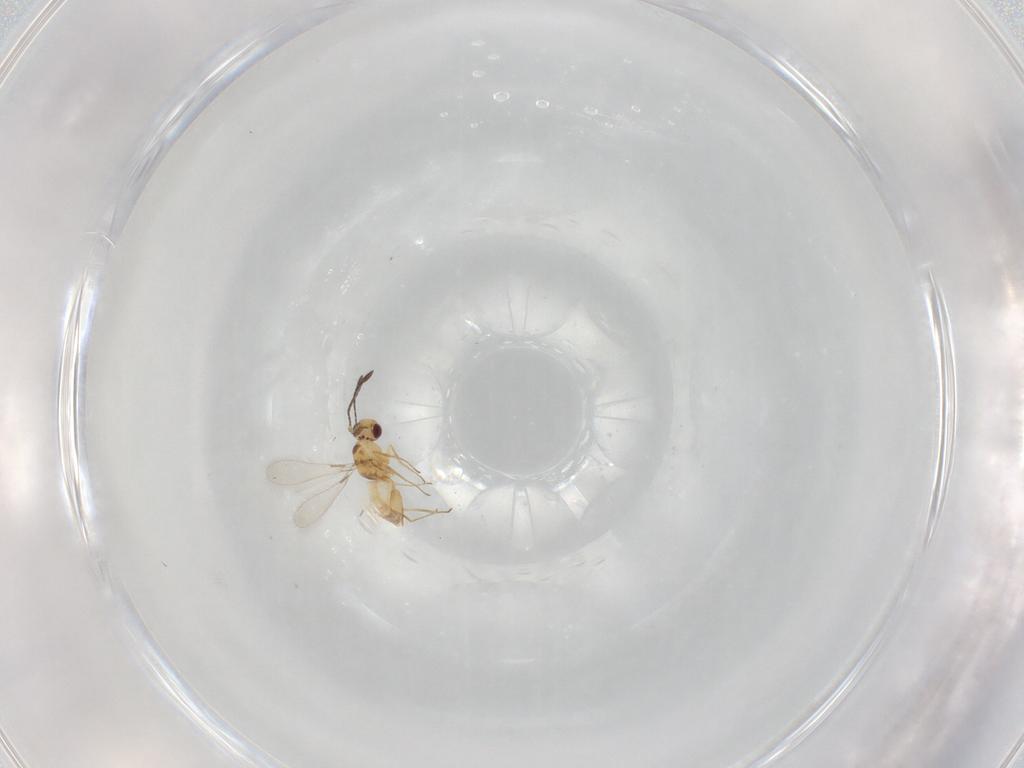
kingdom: Animalia
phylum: Arthropoda
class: Insecta
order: Hymenoptera
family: Mymaridae
